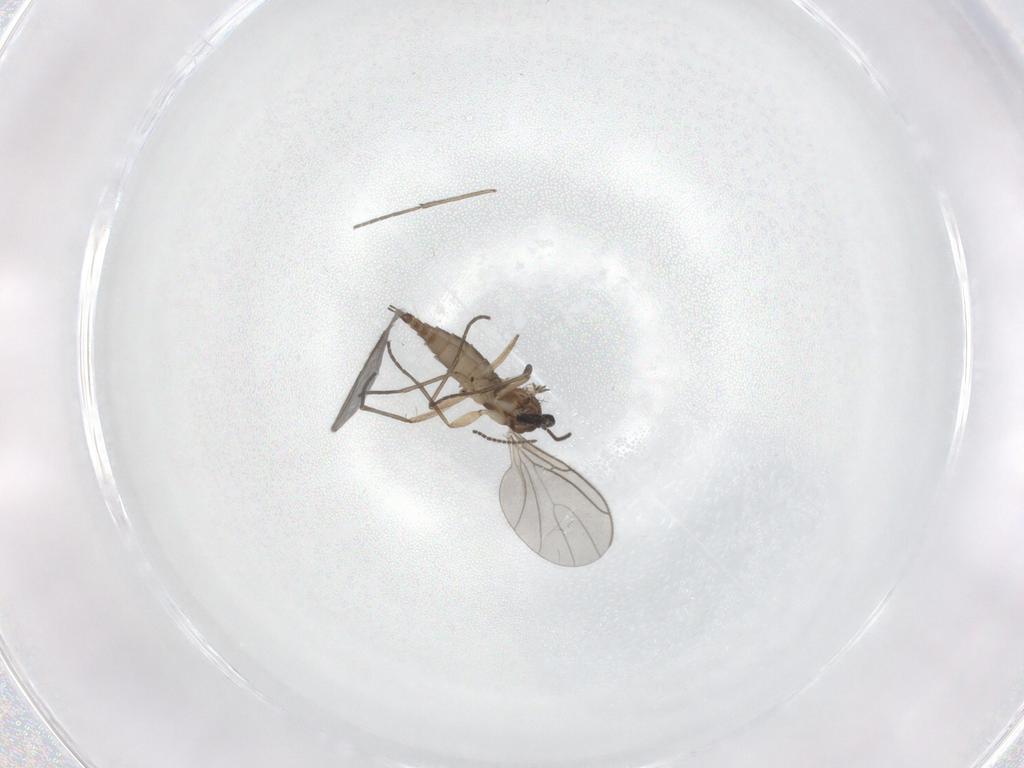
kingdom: Animalia
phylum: Arthropoda
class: Insecta
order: Diptera
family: Sciaridae
